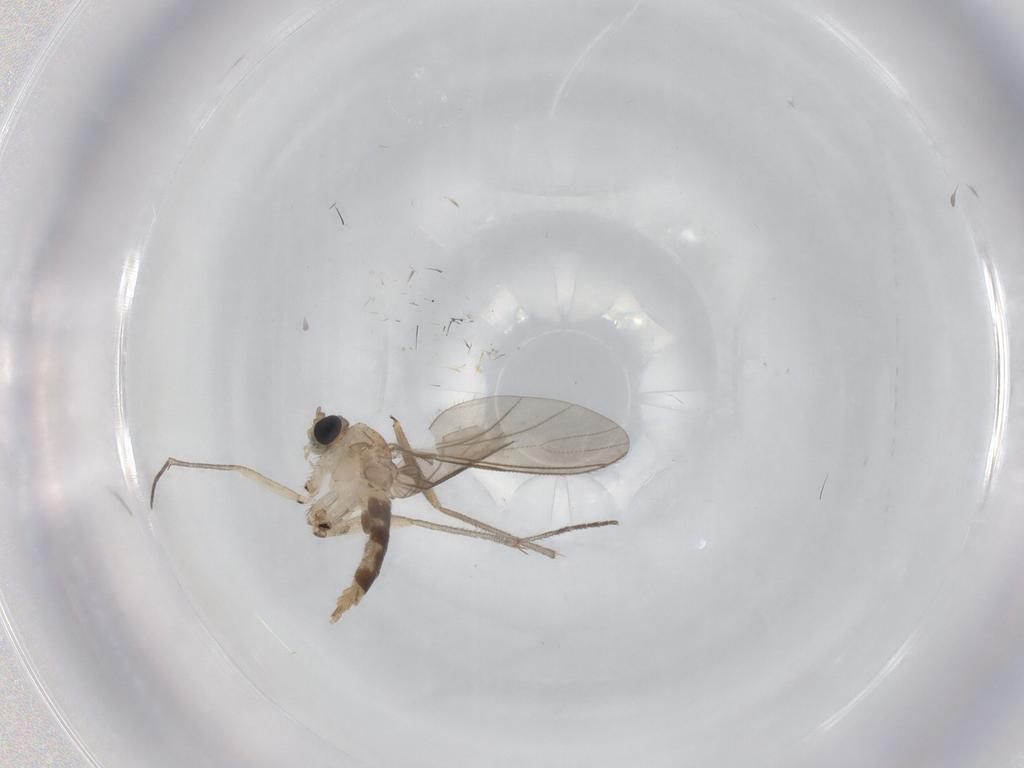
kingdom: Animalia
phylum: Arthropoda
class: Insecta
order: Diptera
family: Sciaridae
